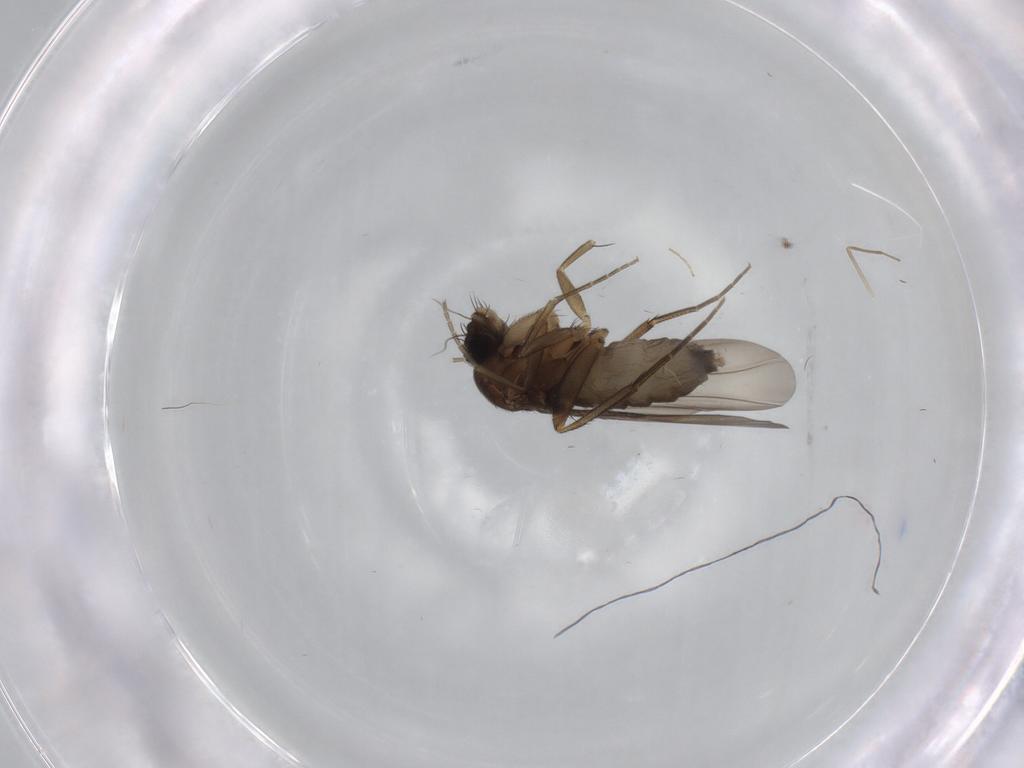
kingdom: Animalia
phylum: Arthropoda
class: Insecta
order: Diptera
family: Phoridae
